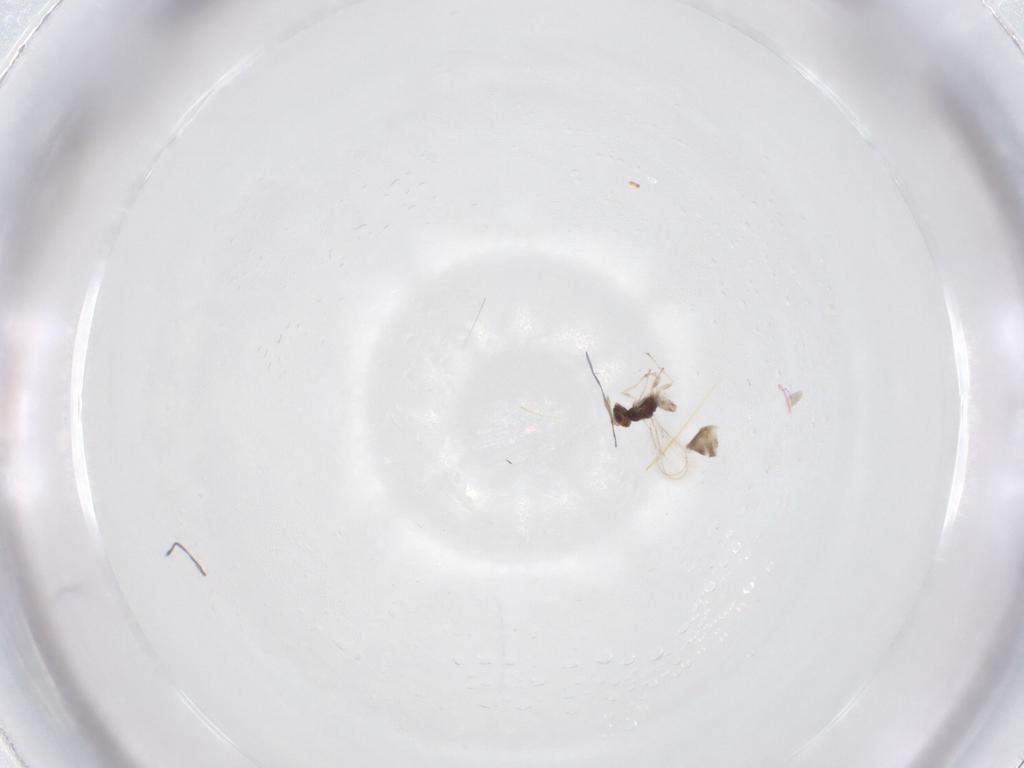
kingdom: Animalia
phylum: Arthropoda
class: Insecta
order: Hymenoptera
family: Eulophidae
